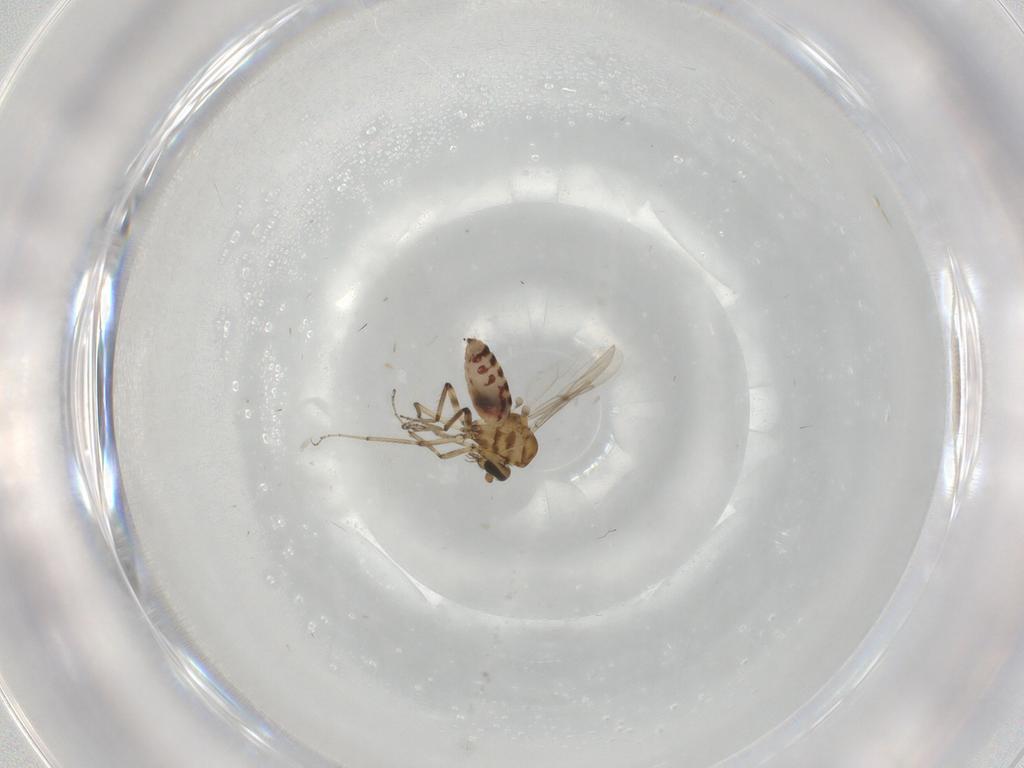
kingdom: Animalia
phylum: Arthropoda
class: Insecta
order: Diptera
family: Ceratopogonidae
